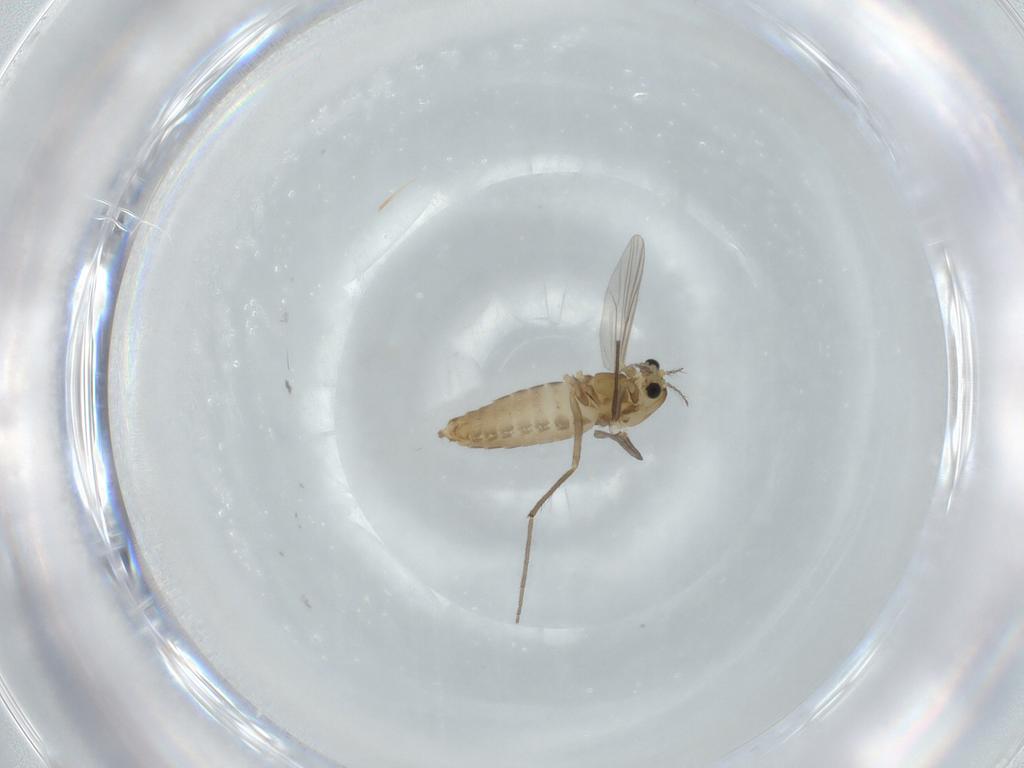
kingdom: Animalia
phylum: Arthropoda
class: Insecta
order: Diptera
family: Chironomidae
